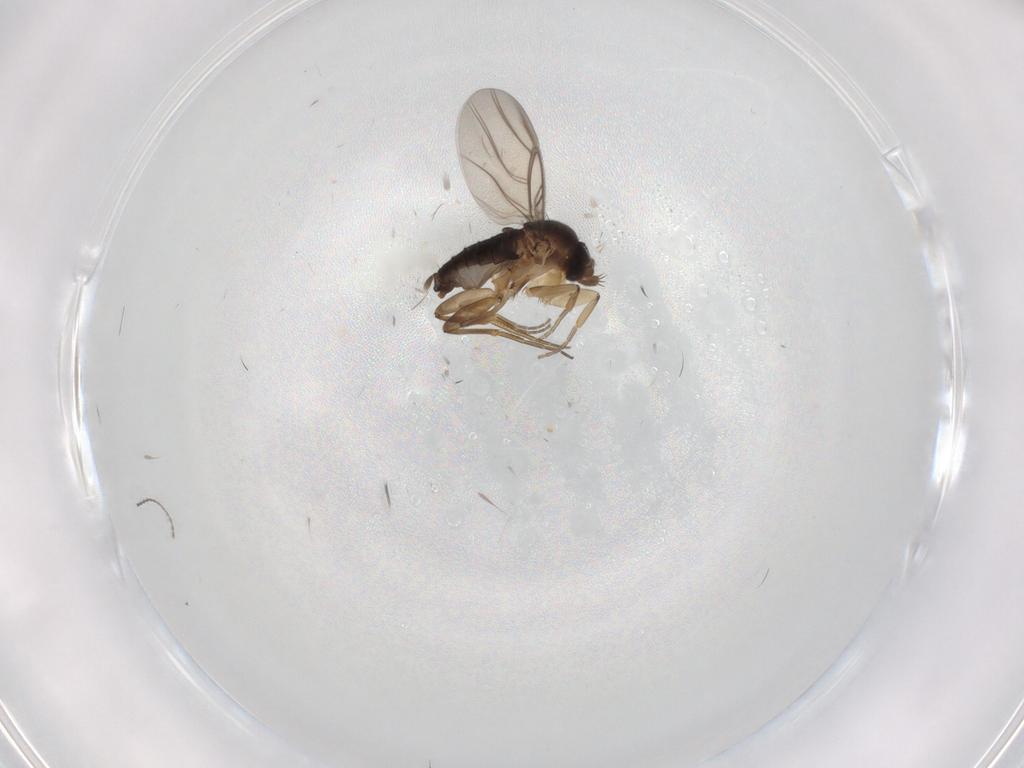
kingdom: Animalia
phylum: Arthropoda
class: Insecta
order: Diptera
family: Phoridae
